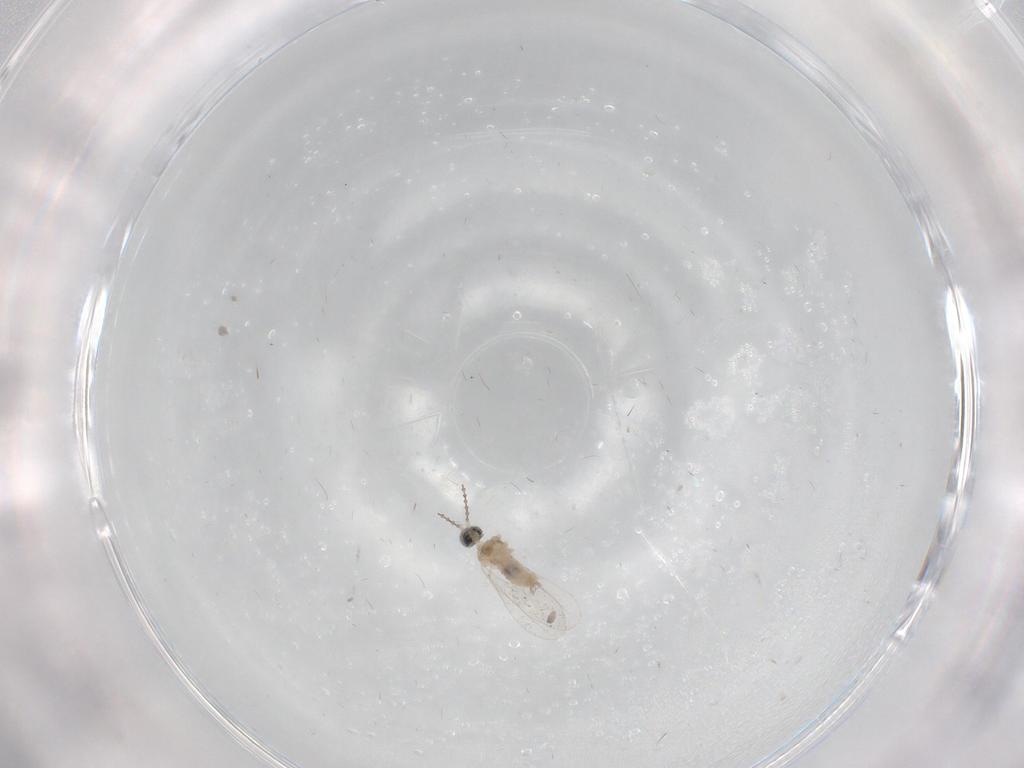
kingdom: Animalia
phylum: Arthropoda
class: Insecta
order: Diptera
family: Cecidomyiidae
